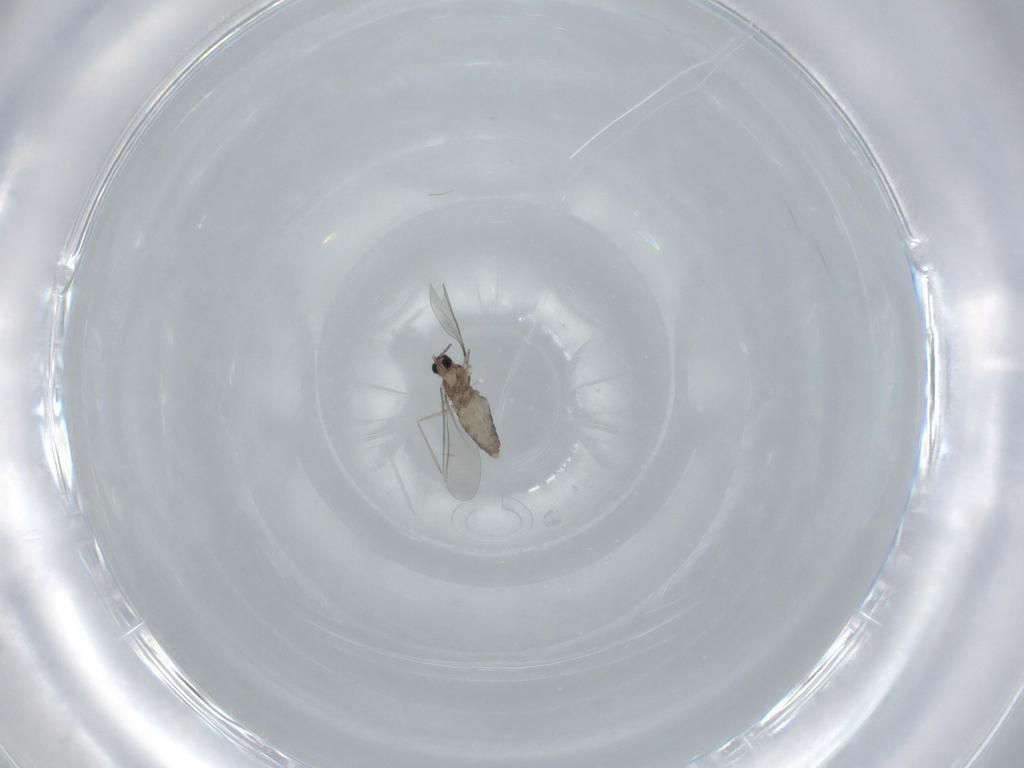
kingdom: Animalia
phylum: Arthropoda
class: Insecta
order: Diptera
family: Cecidomyiidae
